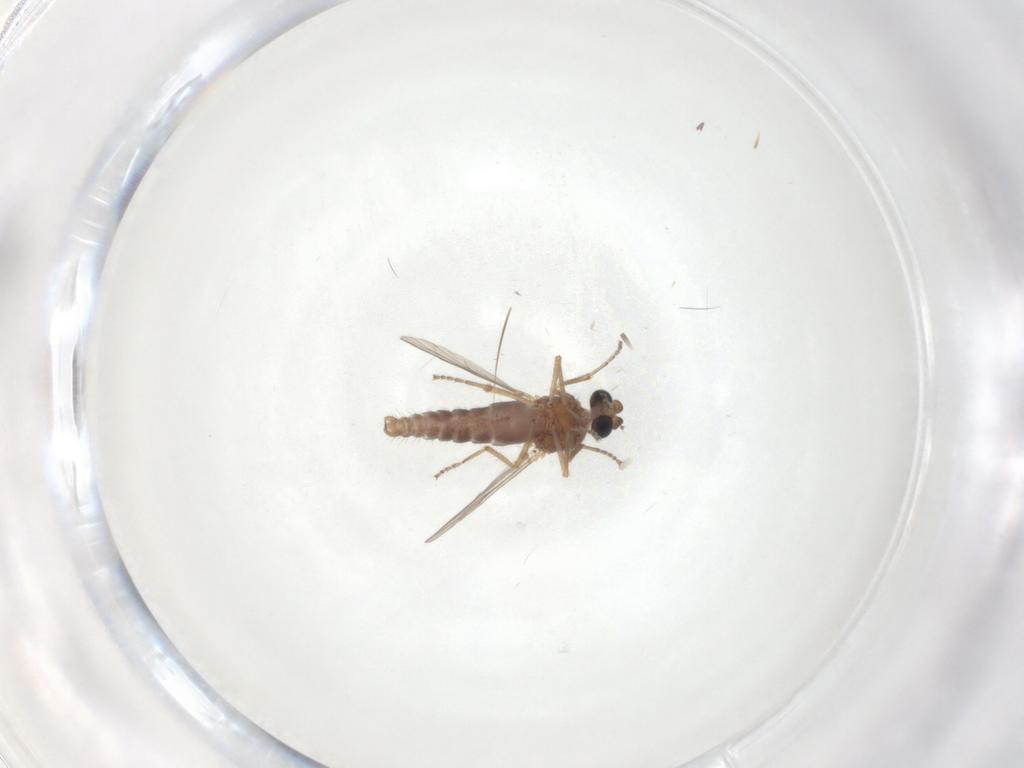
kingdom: Animalia
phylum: Arthropoda
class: Insecta
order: Diptera
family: Ceratopogonidae
